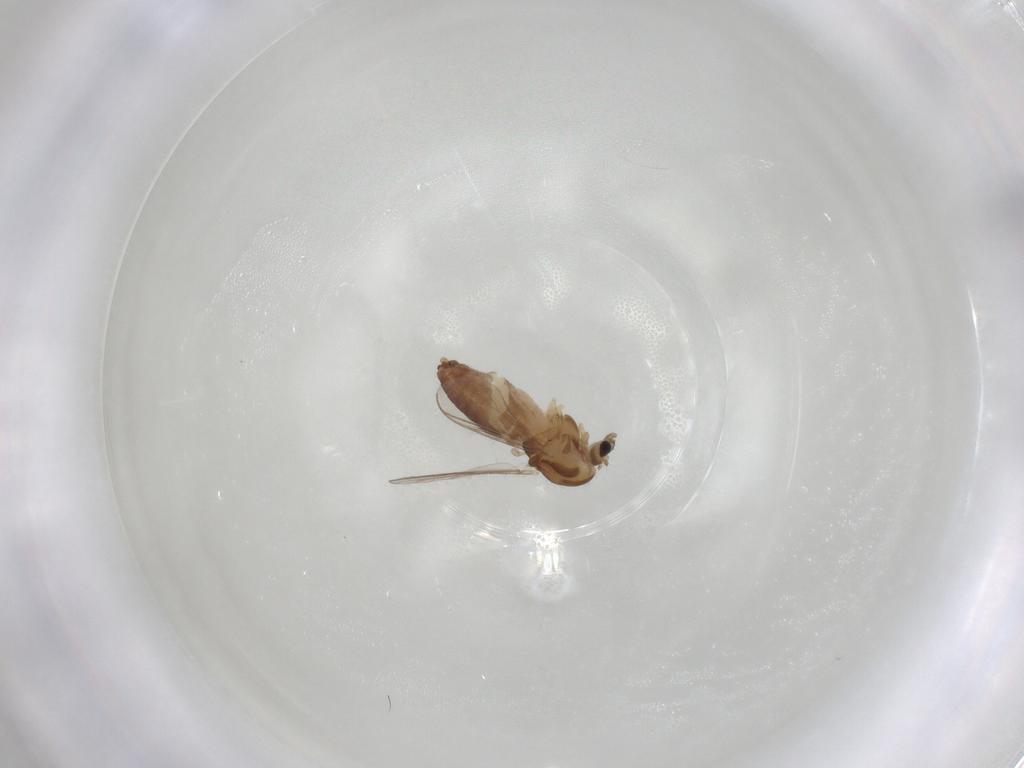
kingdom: Animalia
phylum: Arthropoda
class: Insecta
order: Diptera
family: Chironomidae
